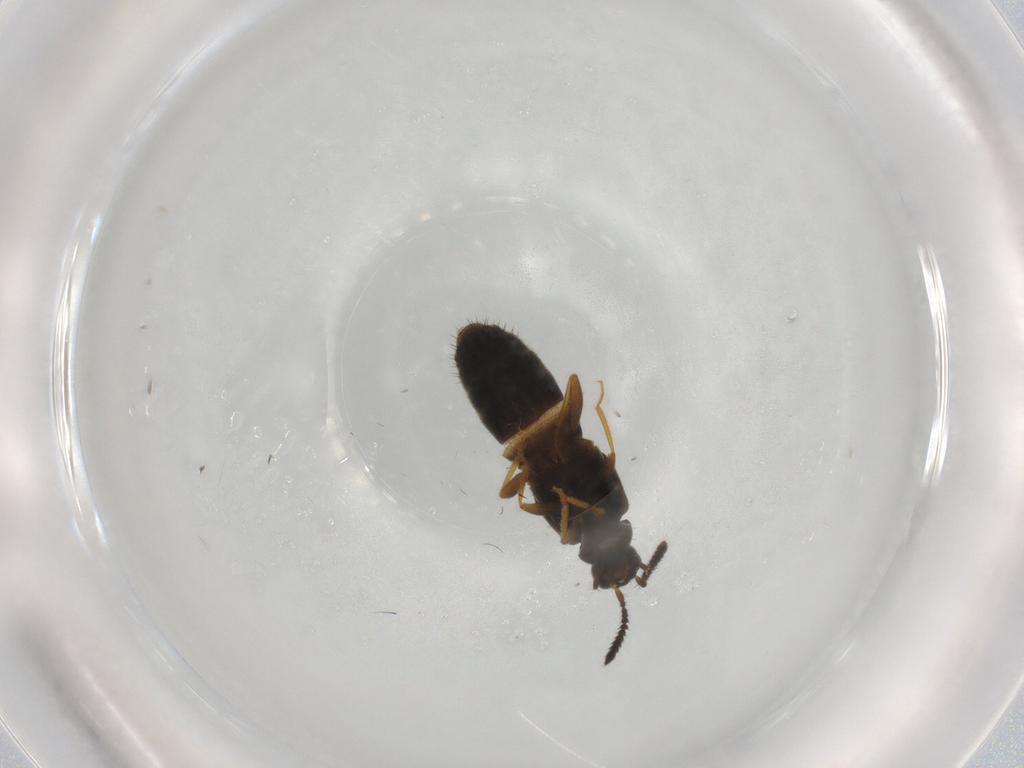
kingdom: Animalia
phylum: Arthropoda
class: Insecta
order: Coleoptera
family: Staphylinidae
